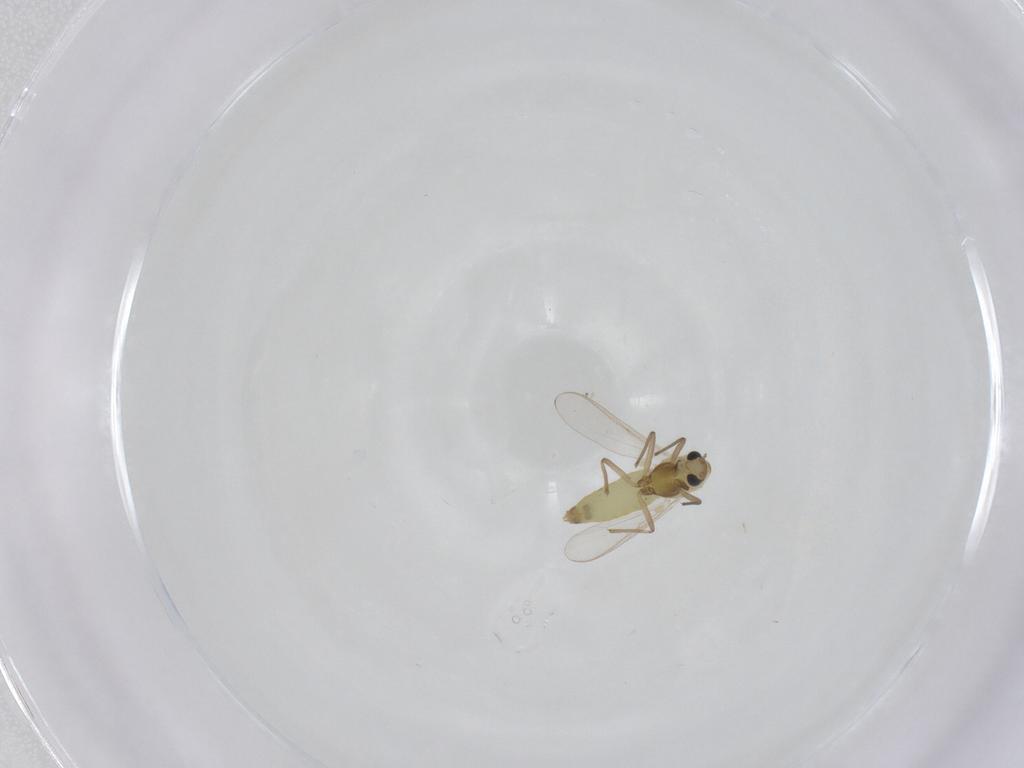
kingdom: Animalia
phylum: Arthropoda
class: Insecta
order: Diptera
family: Chironomidae
